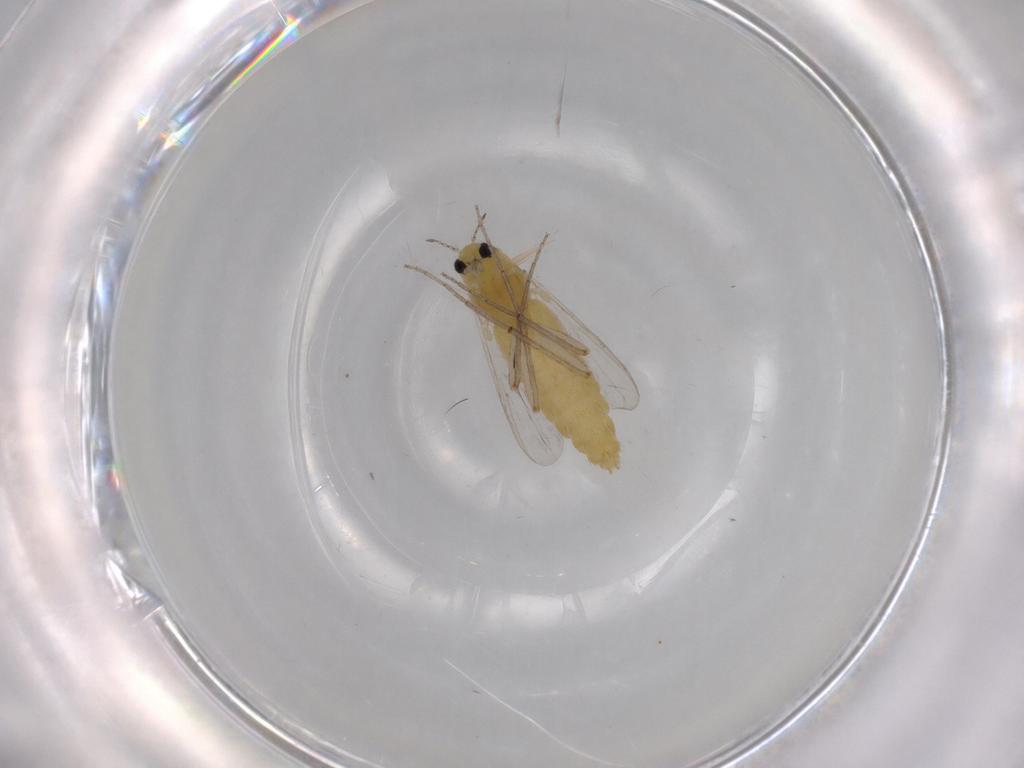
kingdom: Animalia
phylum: Arthropoda
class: Insecta
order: Diptera
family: Chironomidae
